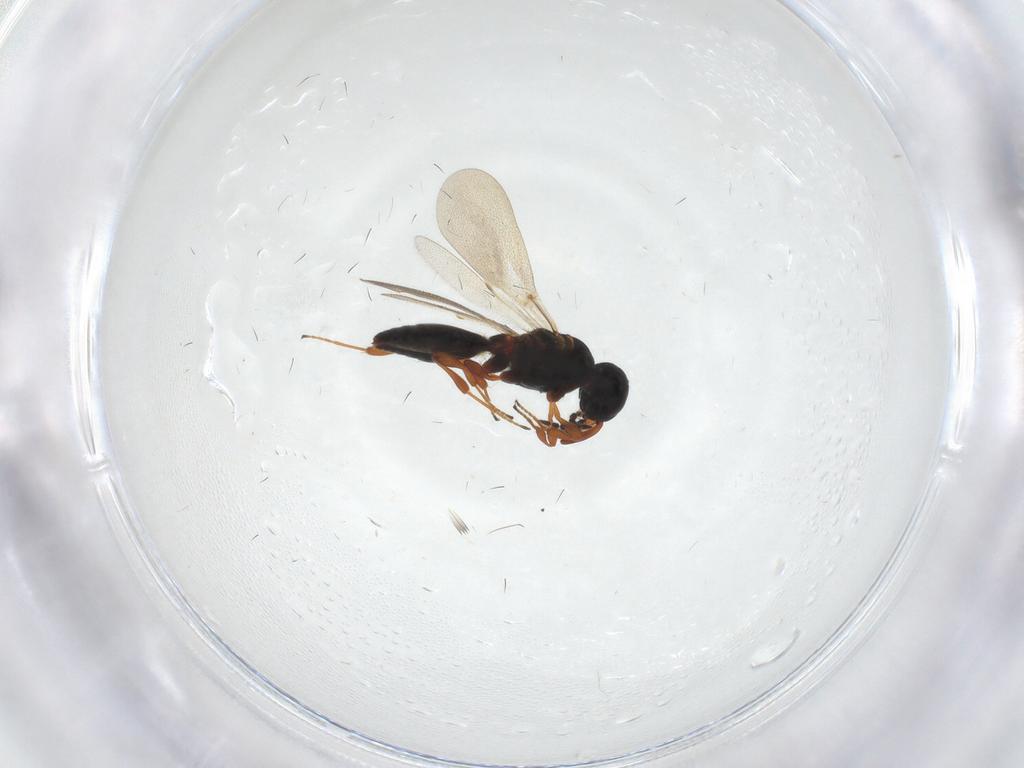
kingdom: Animalia
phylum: Arthropoda
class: Insecta
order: Hymenoptera
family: Platygastridae
